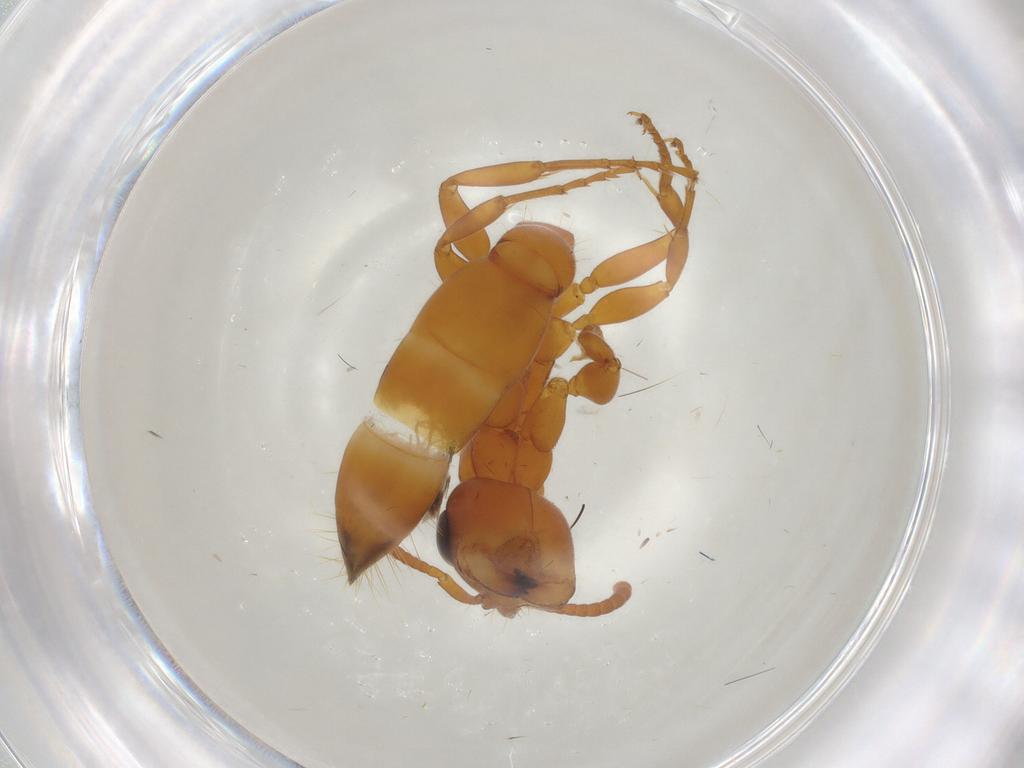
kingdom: Animalia
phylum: Arthropoda
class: Insecta
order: Hymenoptera
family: Formicidae
